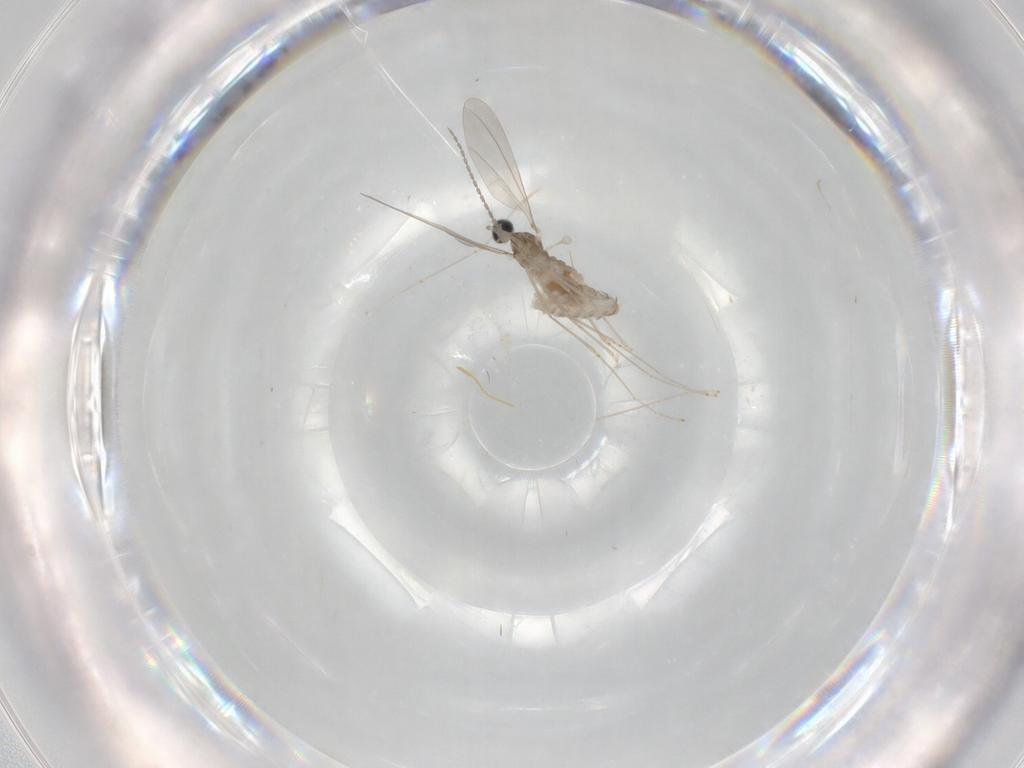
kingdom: Animalia
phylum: Arthropoda
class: Insecta
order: Diptera
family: Cecidomyiidae
